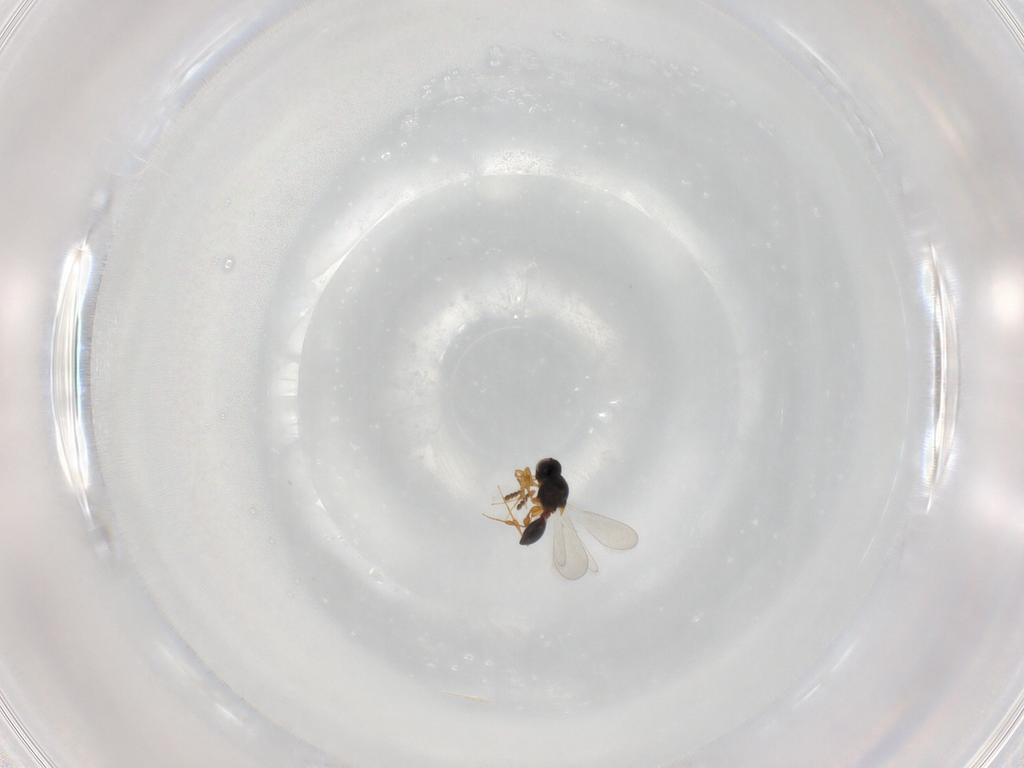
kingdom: Animalia
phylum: Arthropoda
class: Insecta
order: Hymenoptera
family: Platygastridae
